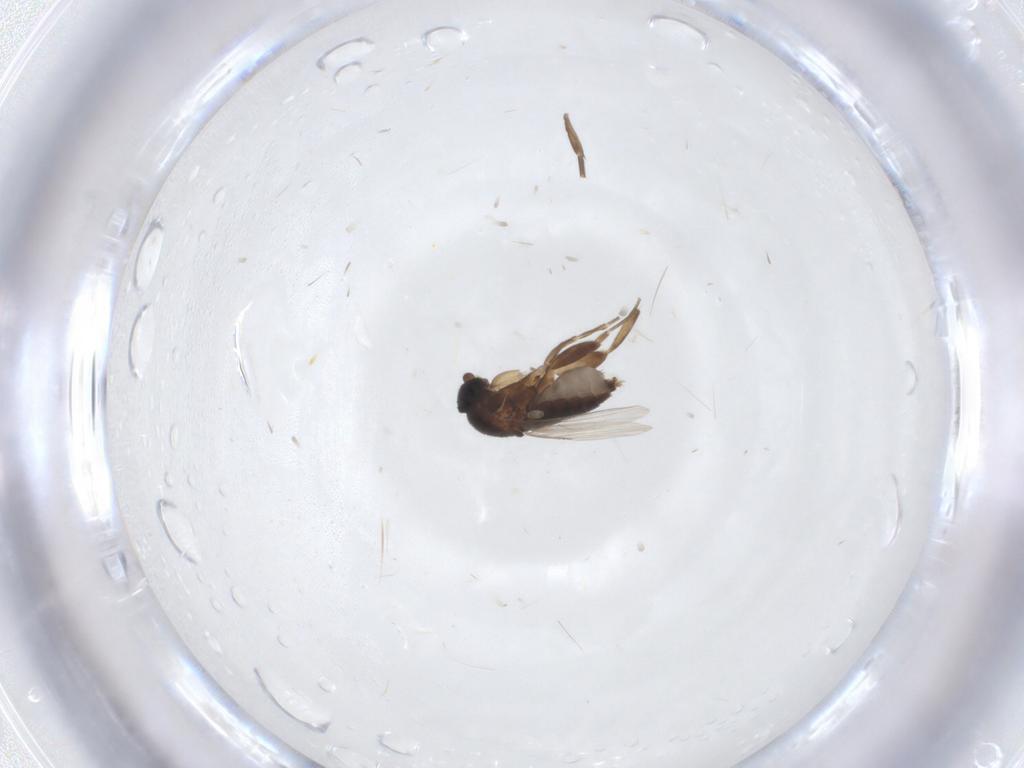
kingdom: Animalia
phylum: Arthropoda
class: Insecta
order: Diptera
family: Phoridae
